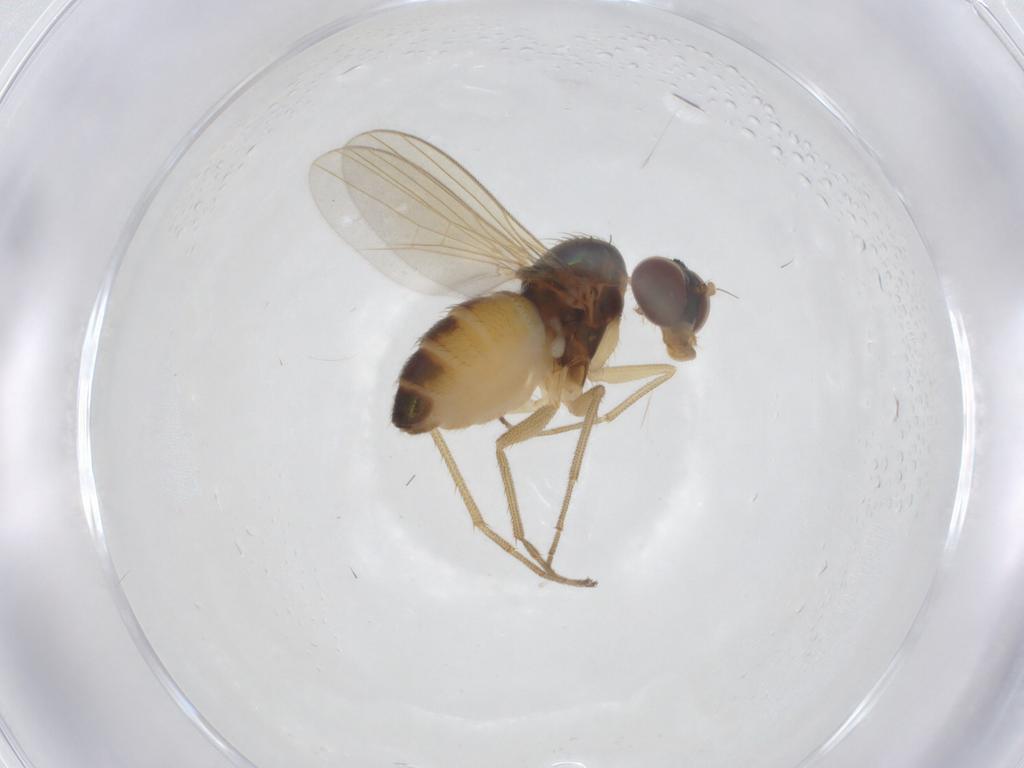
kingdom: Animalia
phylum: Arthropoda
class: Insecta
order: Diptera
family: Dolichopodidae
